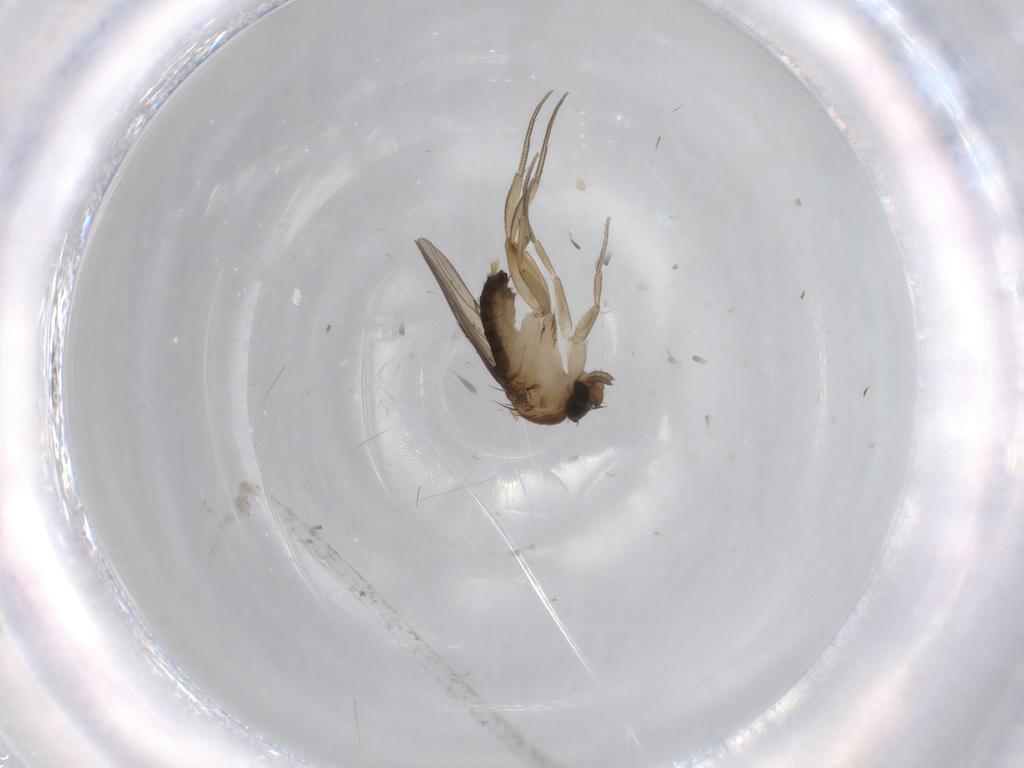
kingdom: Animalia
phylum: Arthropoda
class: Insecta
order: Diptera
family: Phoridae
